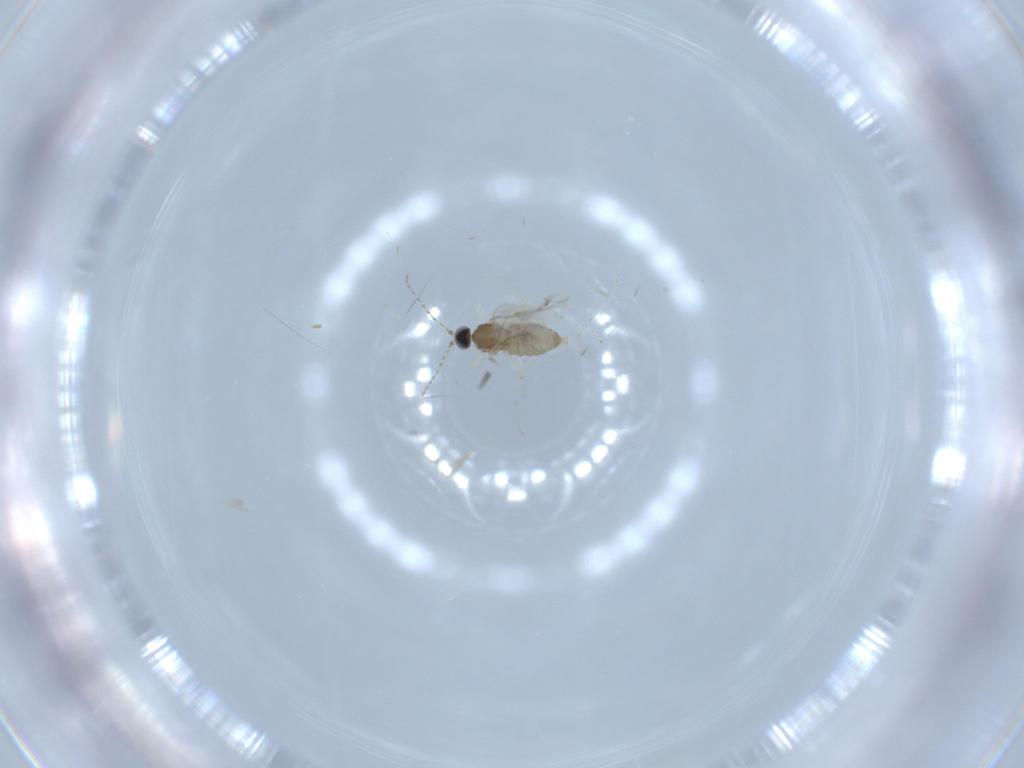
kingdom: Animalia
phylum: Arthropoda
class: Insecta
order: Diptera
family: Cecidomyiidae
